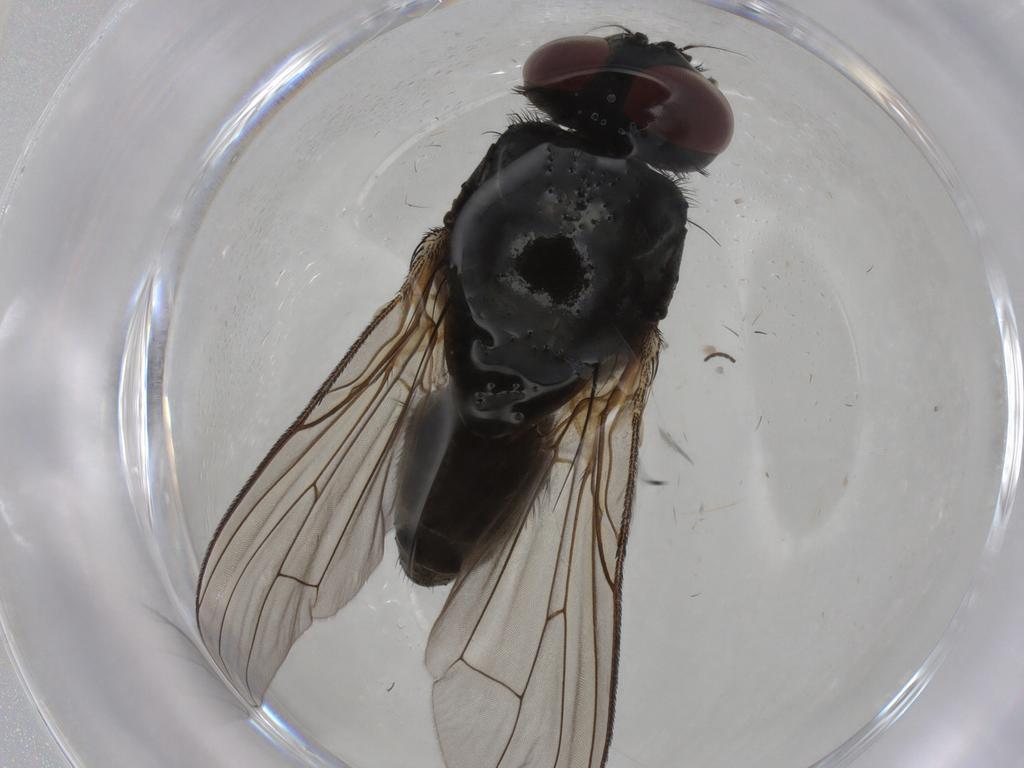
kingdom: Animalia
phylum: Arthropoda
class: Insecta
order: Diptera
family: Muscidae
